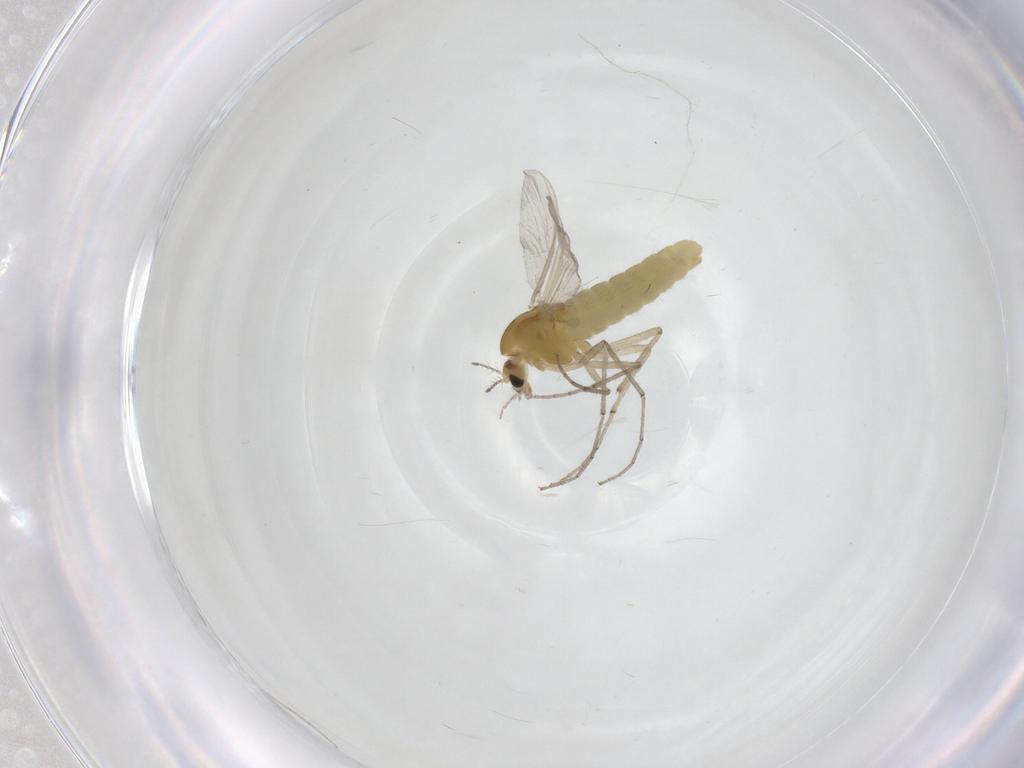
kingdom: Animalia
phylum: Arthropoda
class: Insecta
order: Diptera
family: Chironomidae
